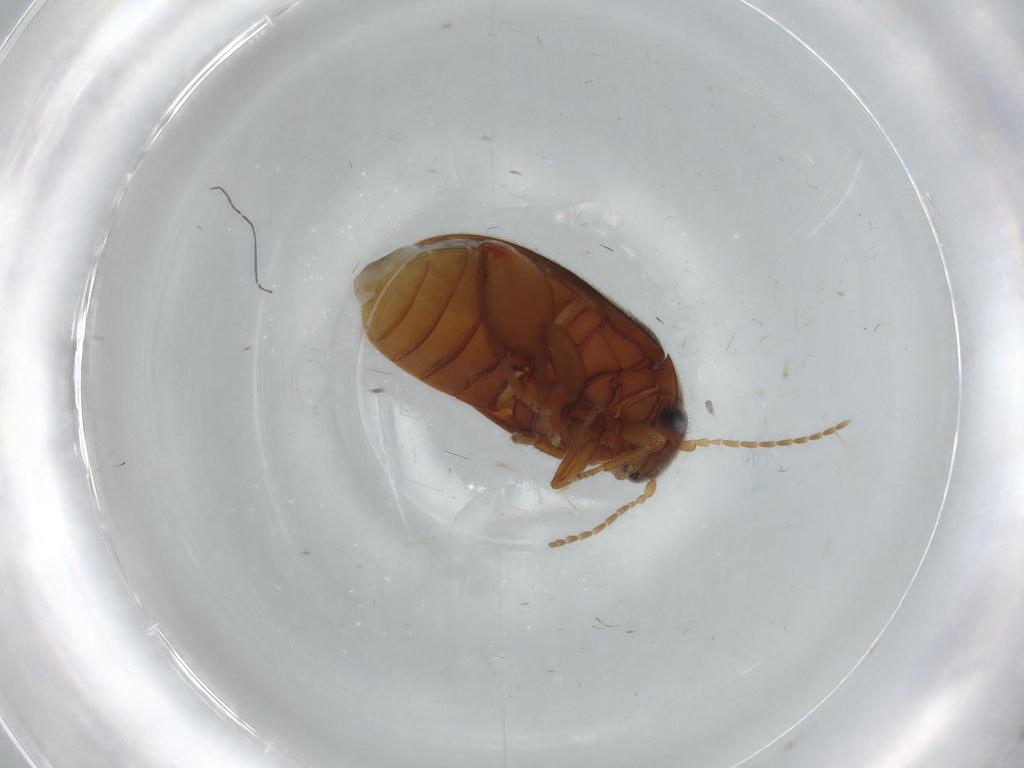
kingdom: Animalia
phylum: Arthropoda
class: Insecta
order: Coleoptera
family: Scirtidae
